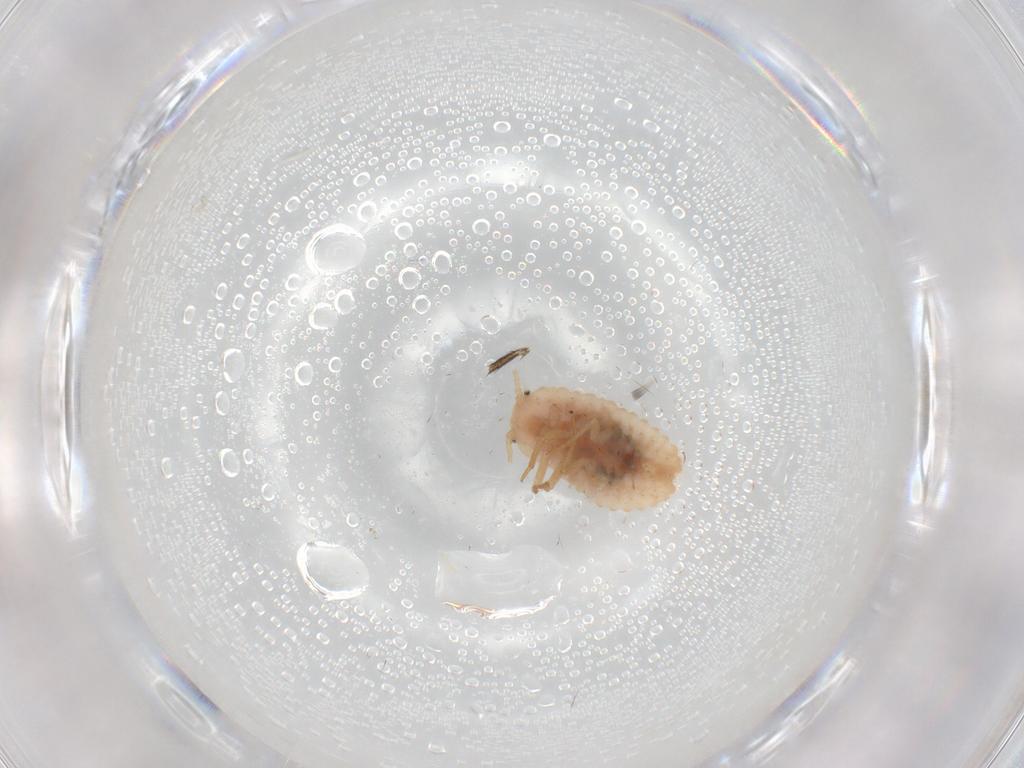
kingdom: Animalia
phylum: Arthropoda
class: Insecta
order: Hemiptera
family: Coccoidea_incertae_sedis
